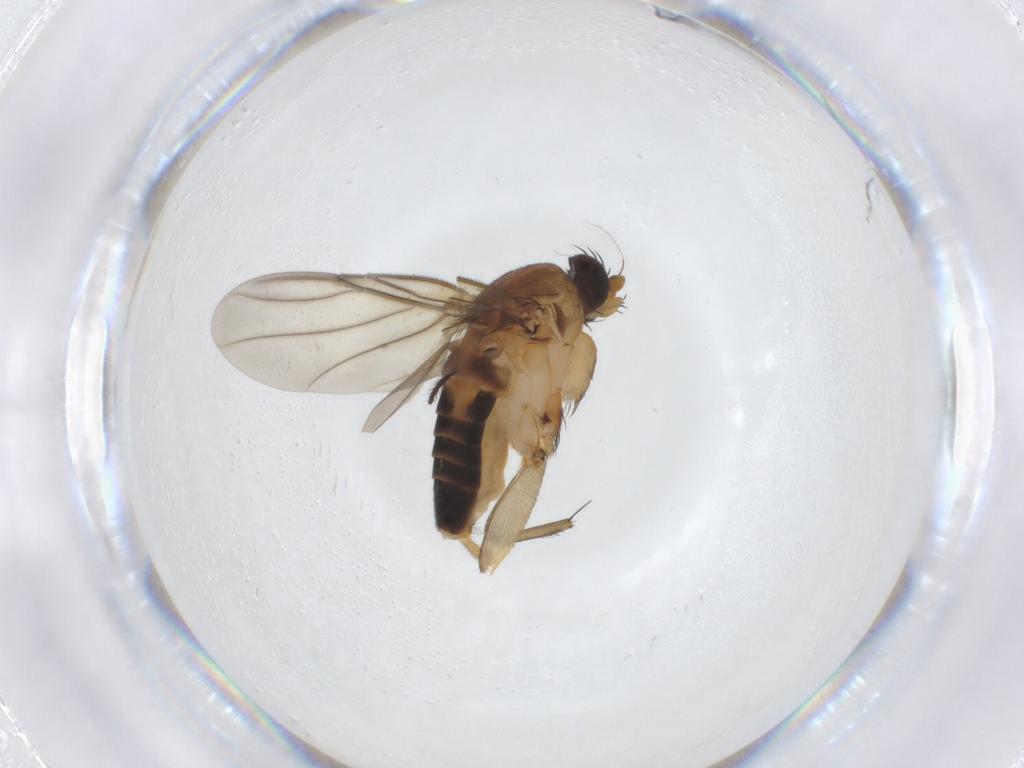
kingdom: Animalia
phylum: Arthropoda
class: Insecta
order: Diptera
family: Phoridae
